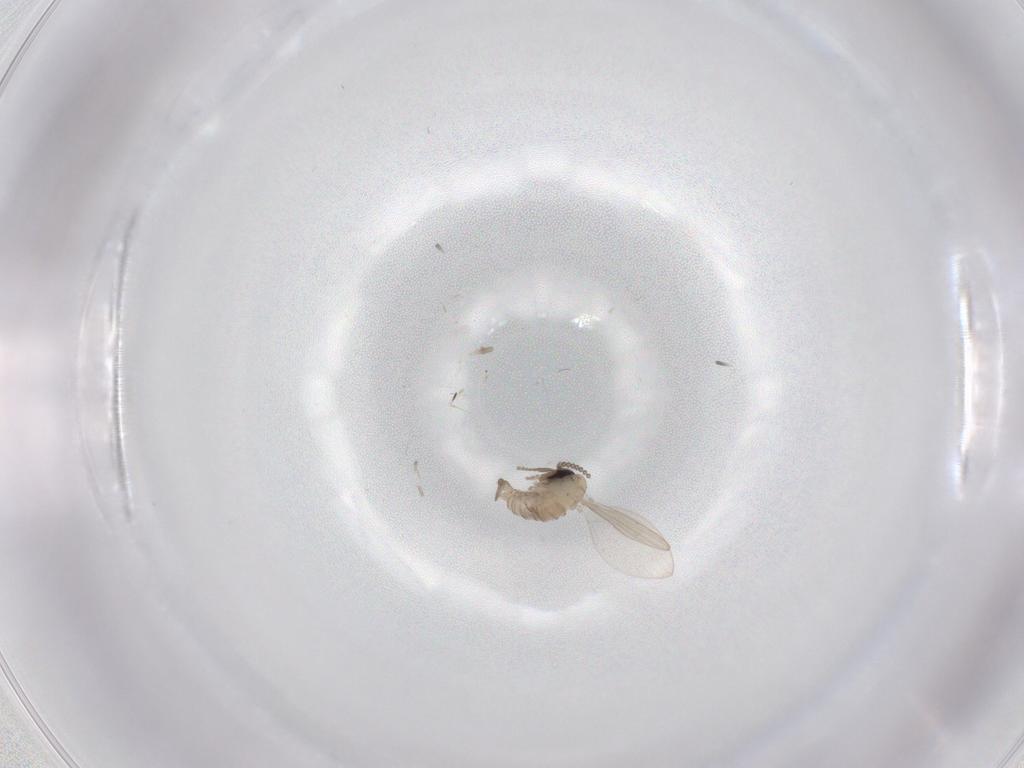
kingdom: Animalia
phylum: Arthropoda
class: Insecta
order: Diptera
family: Psychodidae
